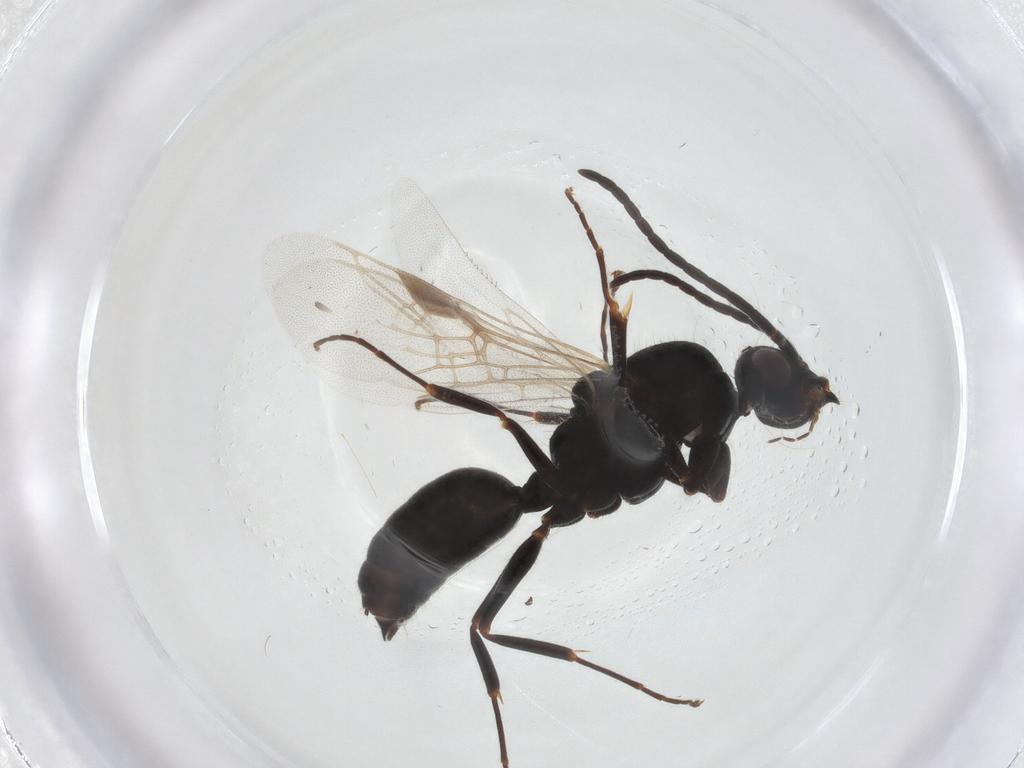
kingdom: Animalia
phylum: Arthropoda
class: Insecta
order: Hymenoptera
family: Formicidae
